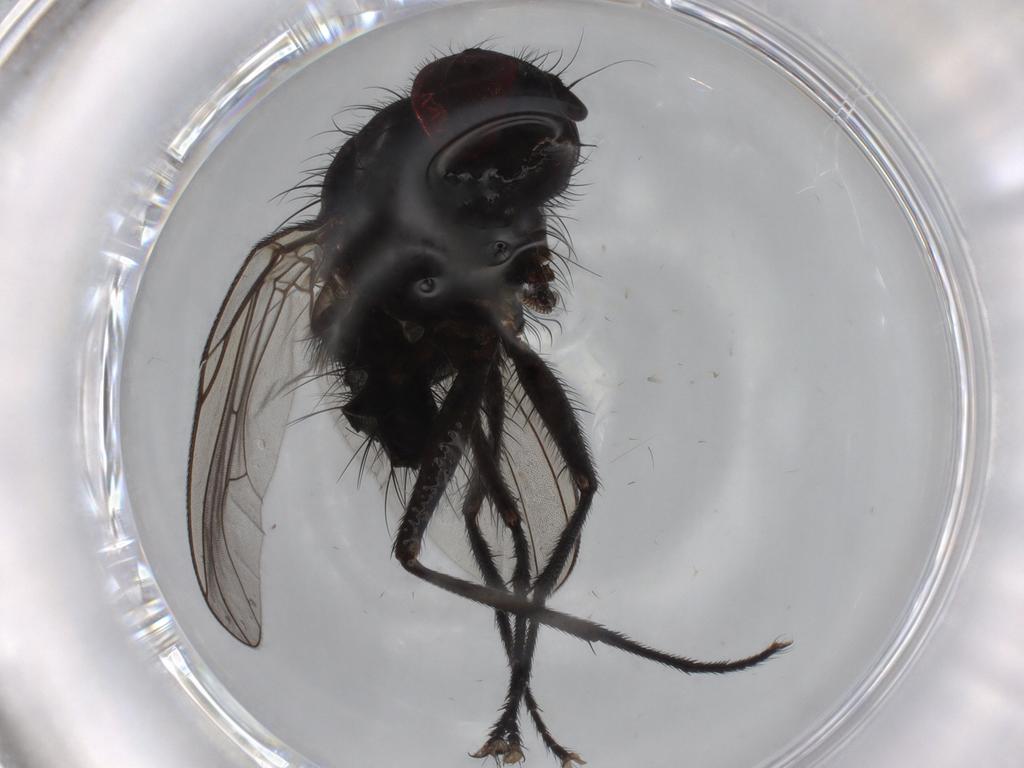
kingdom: Animalia
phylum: Arthropoda
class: Insecta
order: Diptera
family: Muscidae
